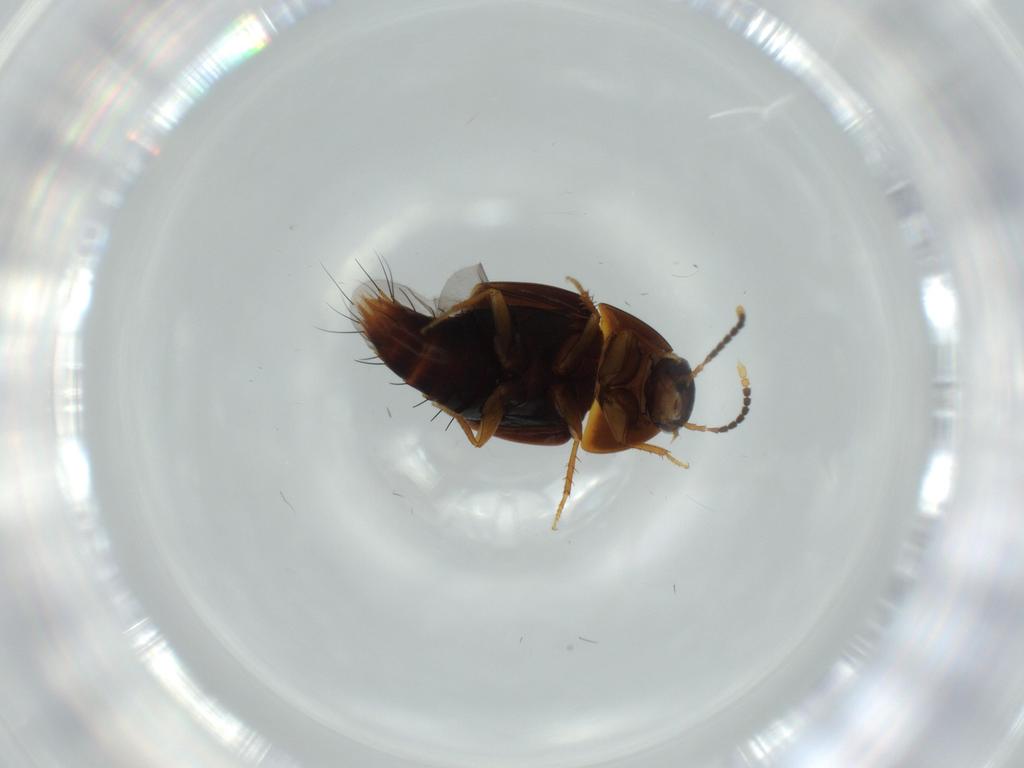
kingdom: Animalia
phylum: Arthropoda
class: Insecta
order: Coleoptera
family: Staphylinidae
